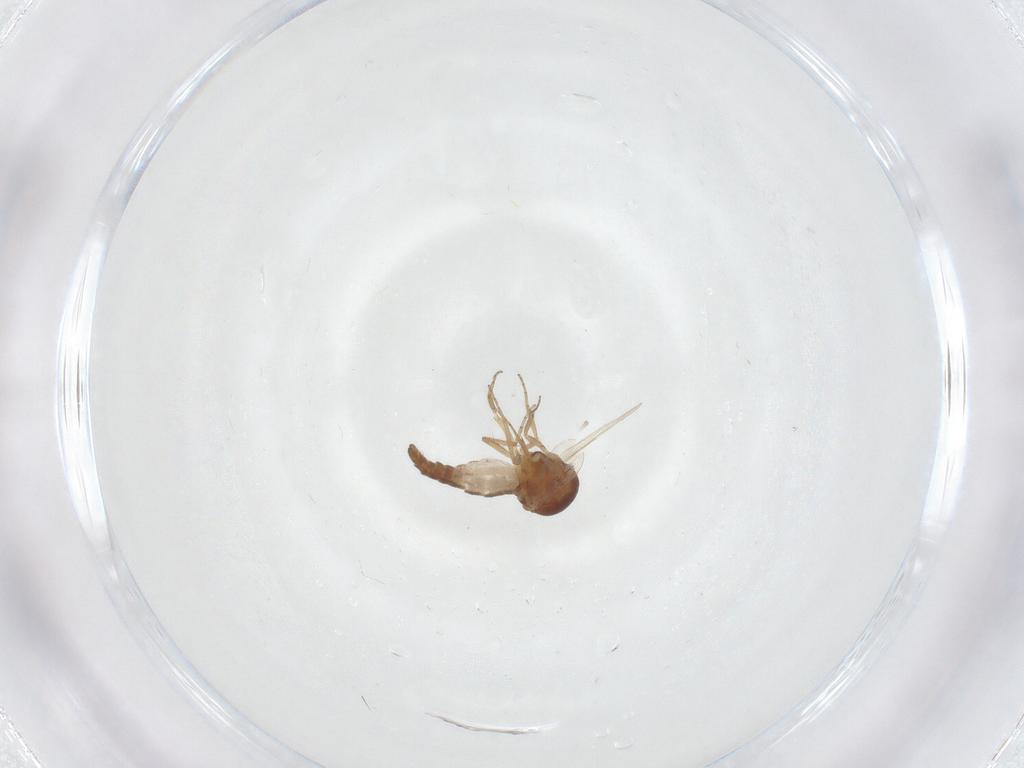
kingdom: Animalia
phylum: Arthropoda
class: Insecta
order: Diptera
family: Ceratopogonidae
